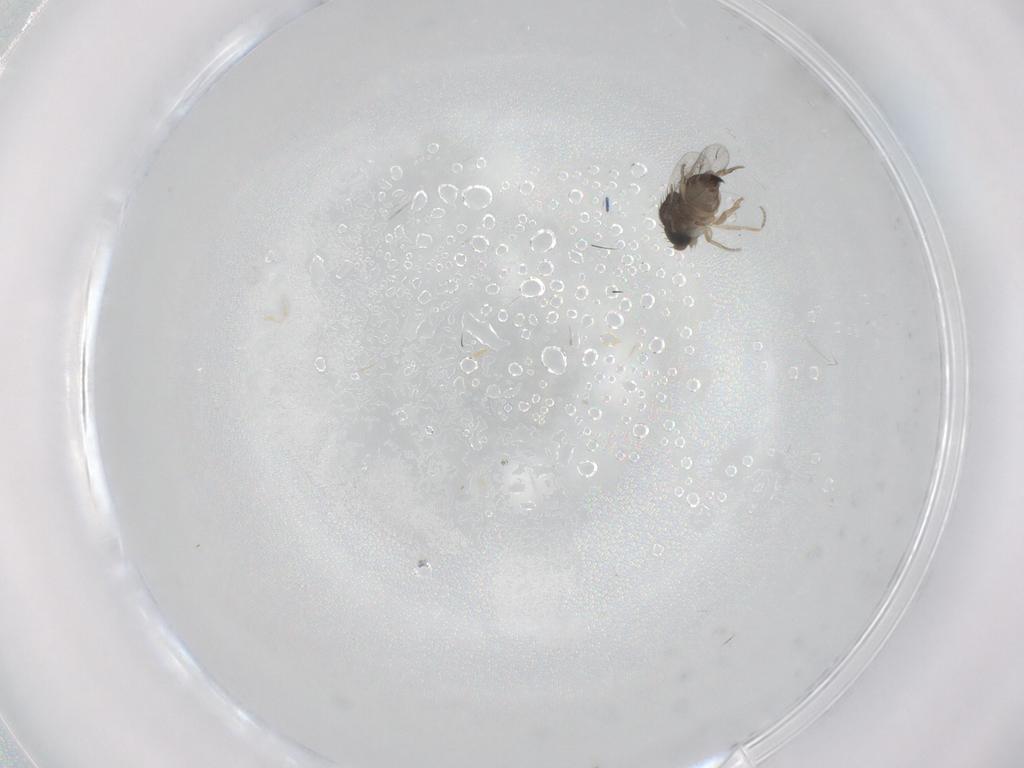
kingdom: Animalia
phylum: Arthropoda
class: Insecta
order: Diptera
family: Phoridae
